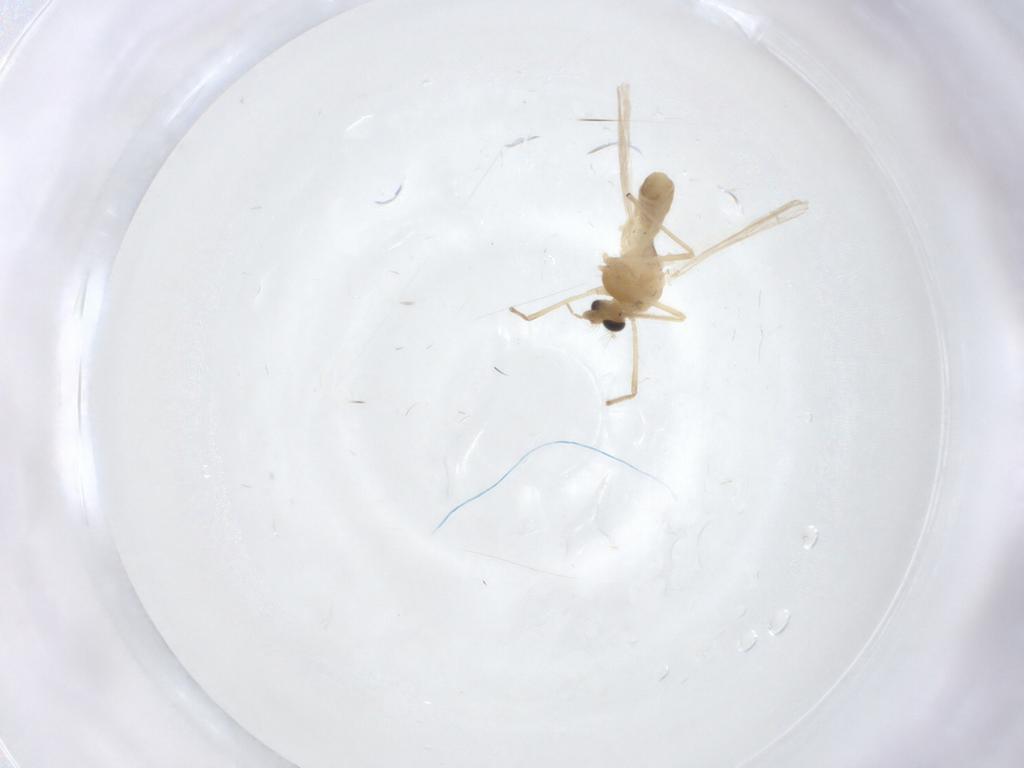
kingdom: Animalia
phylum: Arthropoda
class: Insecta
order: Diptera
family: Chironomidae
